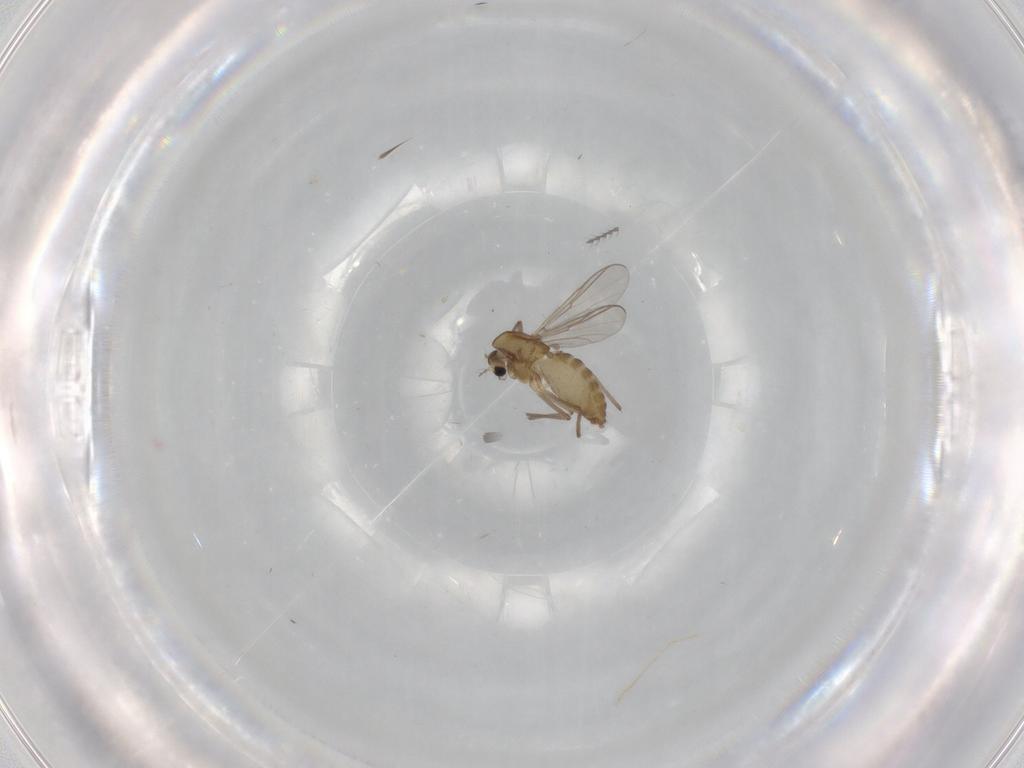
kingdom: Animalia
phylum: Arthropoda
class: Insecta
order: Diptera
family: Chironomidae
